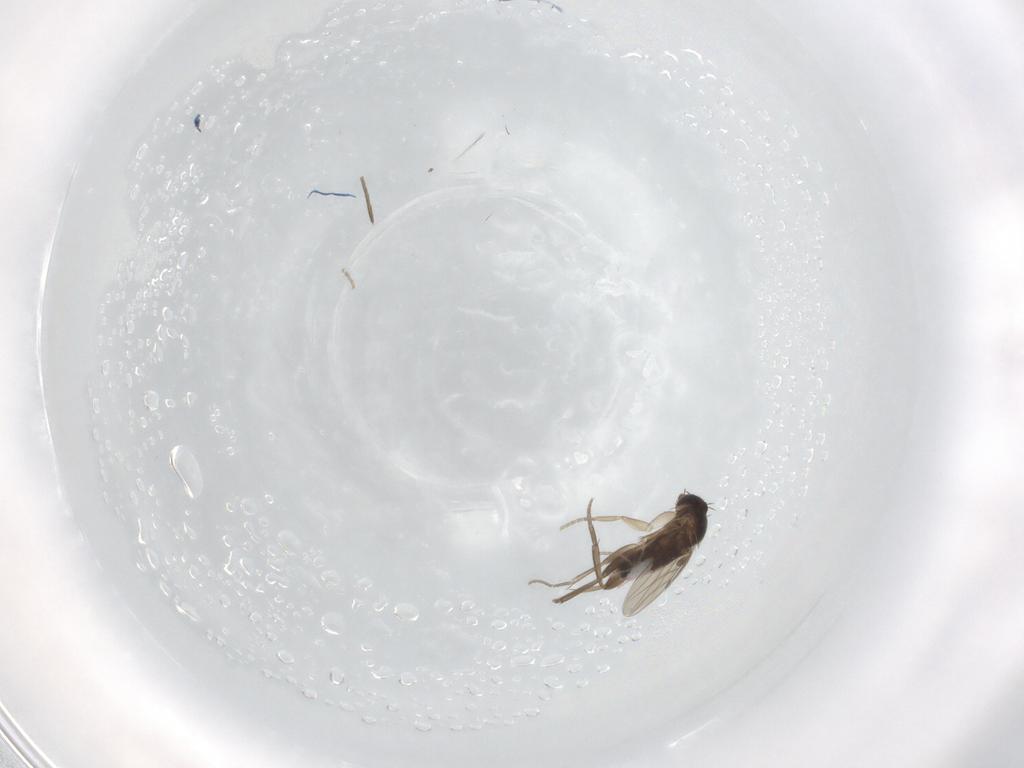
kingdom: Animalia
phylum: Arthropoda
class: Insecta
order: Diptera
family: Phoridae
